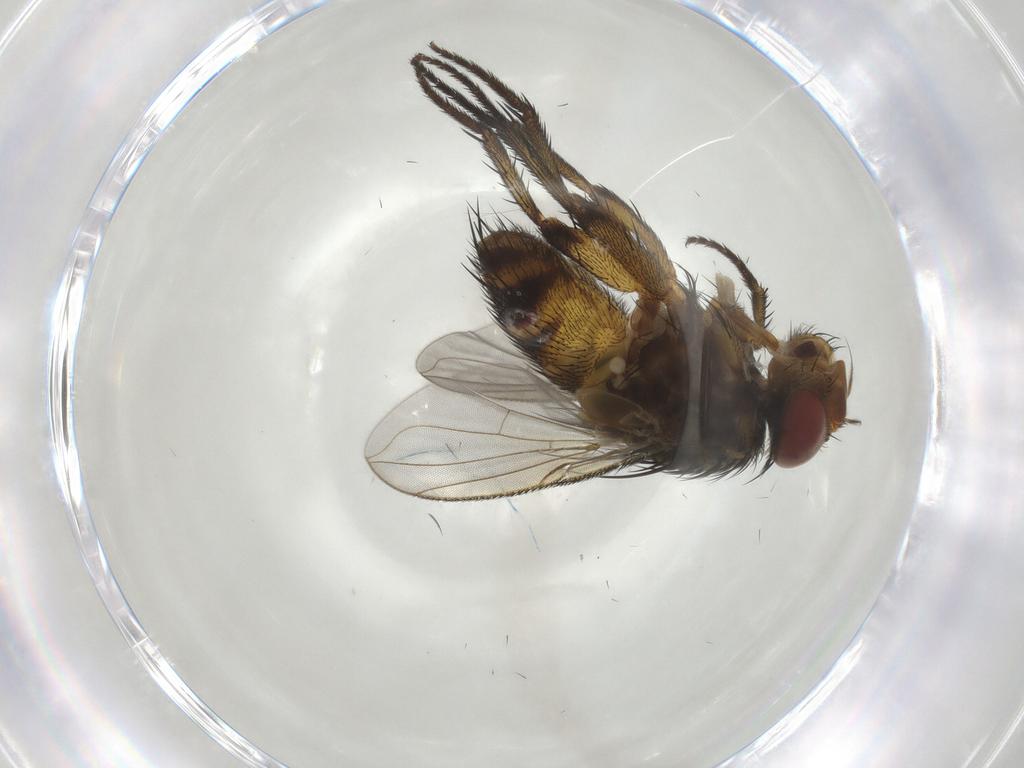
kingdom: Animalia
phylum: Arthropoda
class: Insecta
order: Diptera
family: Tachinidae
